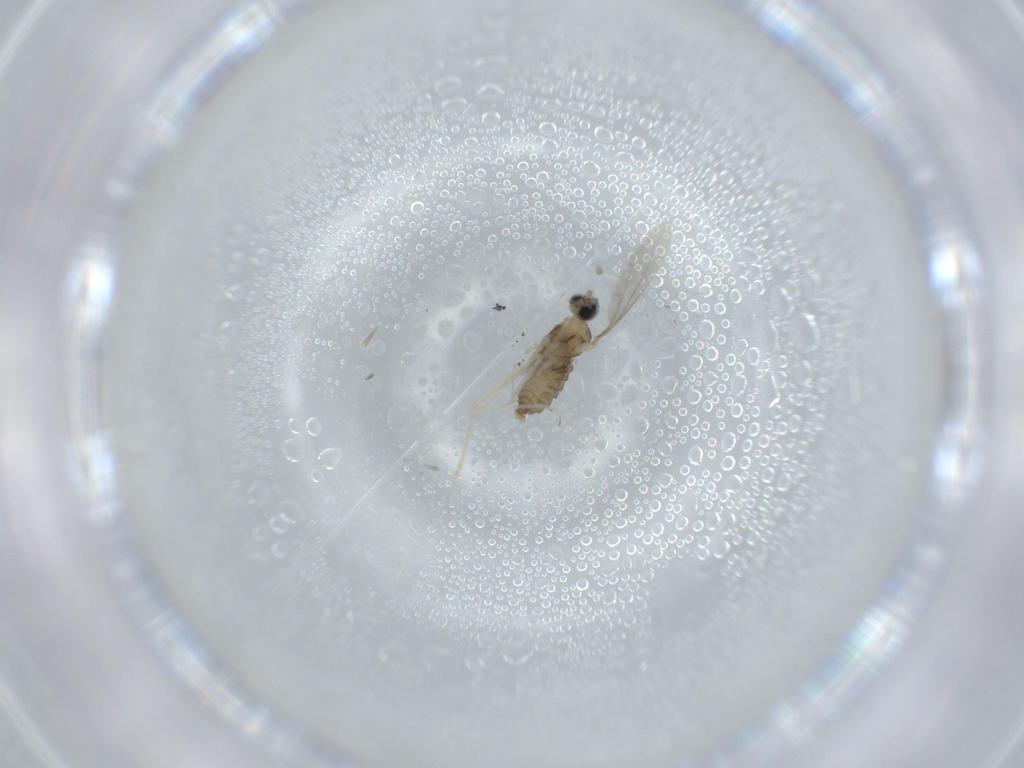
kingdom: Animalia
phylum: Arthropoda
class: Insecta
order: Diptera
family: Cecidomyiidae
